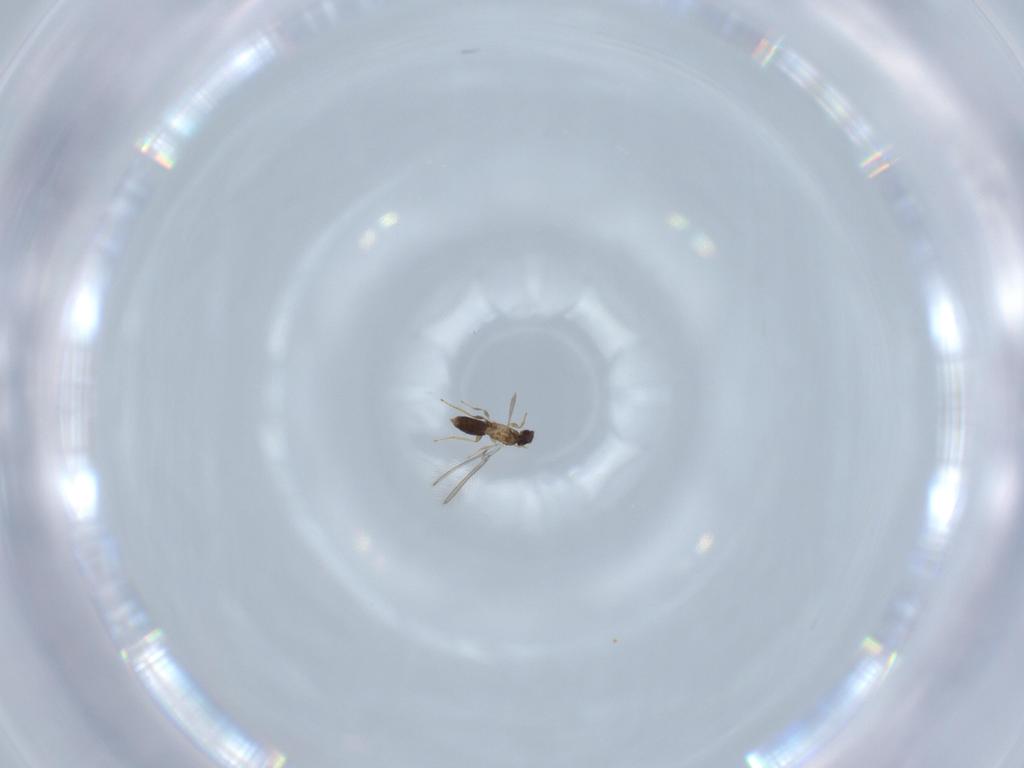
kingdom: Animalia
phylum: Arthropoda
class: Insecta
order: Hymenoptera
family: Mymaridae
